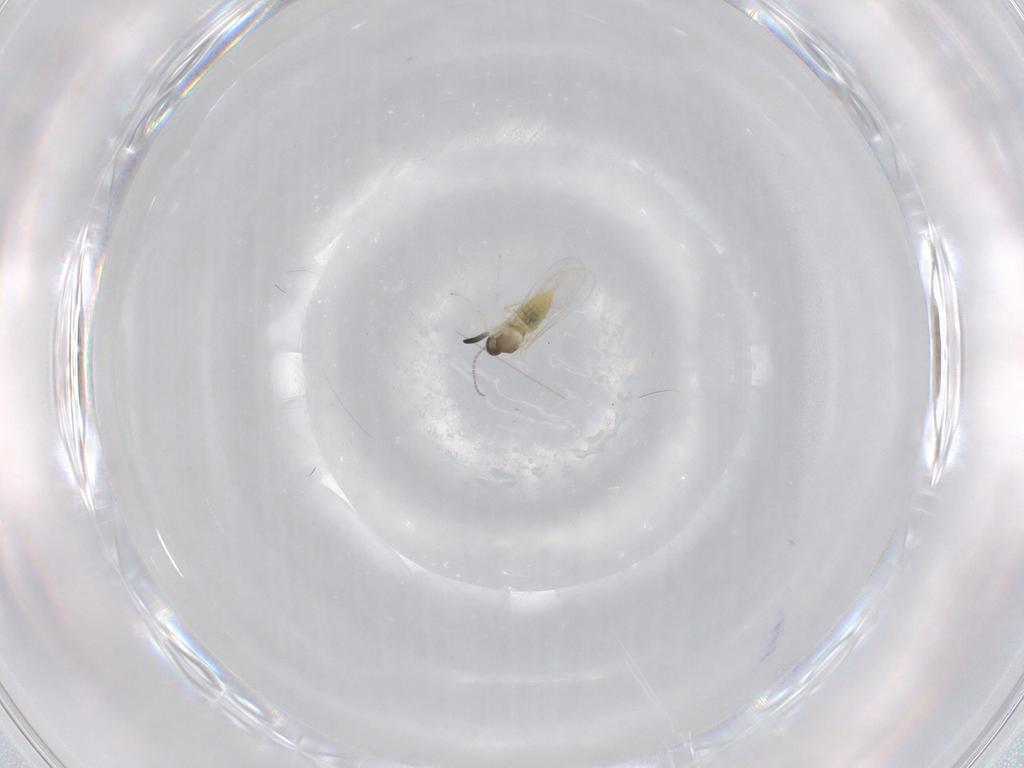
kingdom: Animalia
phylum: Arthropoda
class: Insecta
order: Diptera
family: Cecidomyiidae
